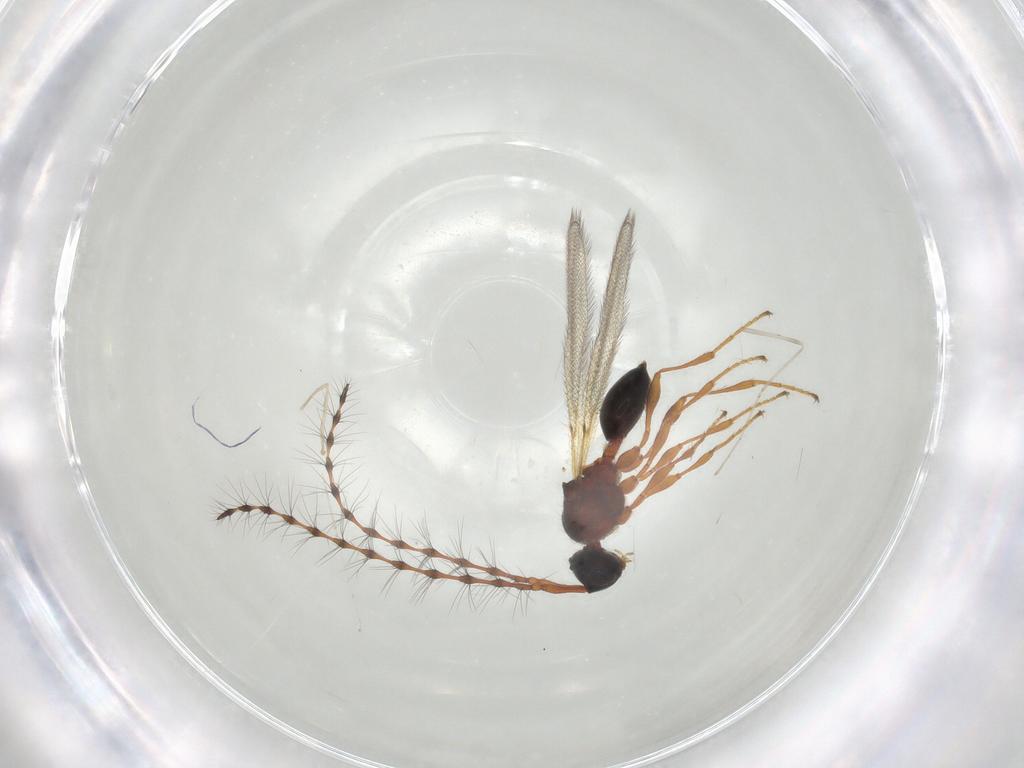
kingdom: Animalia
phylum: Arthropoda
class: Insecta
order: Hymenoptera
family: Diapriidae
